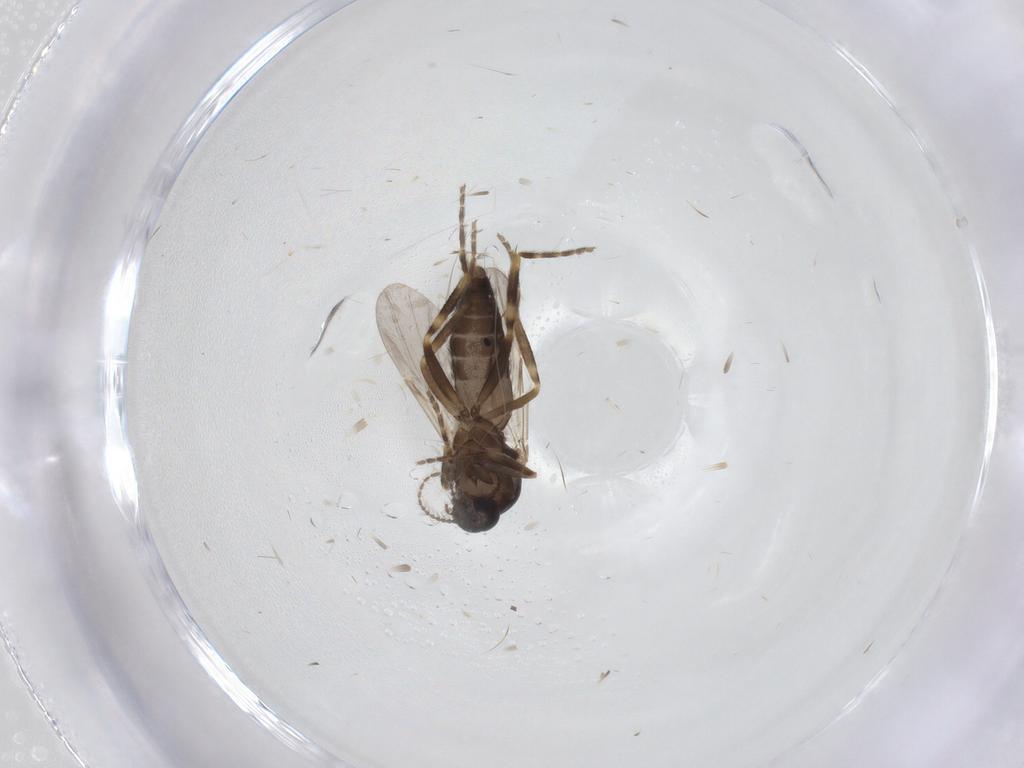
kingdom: Animalia
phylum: Arthropoda
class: Insecta
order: Diptera
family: Ceratopogonidae
